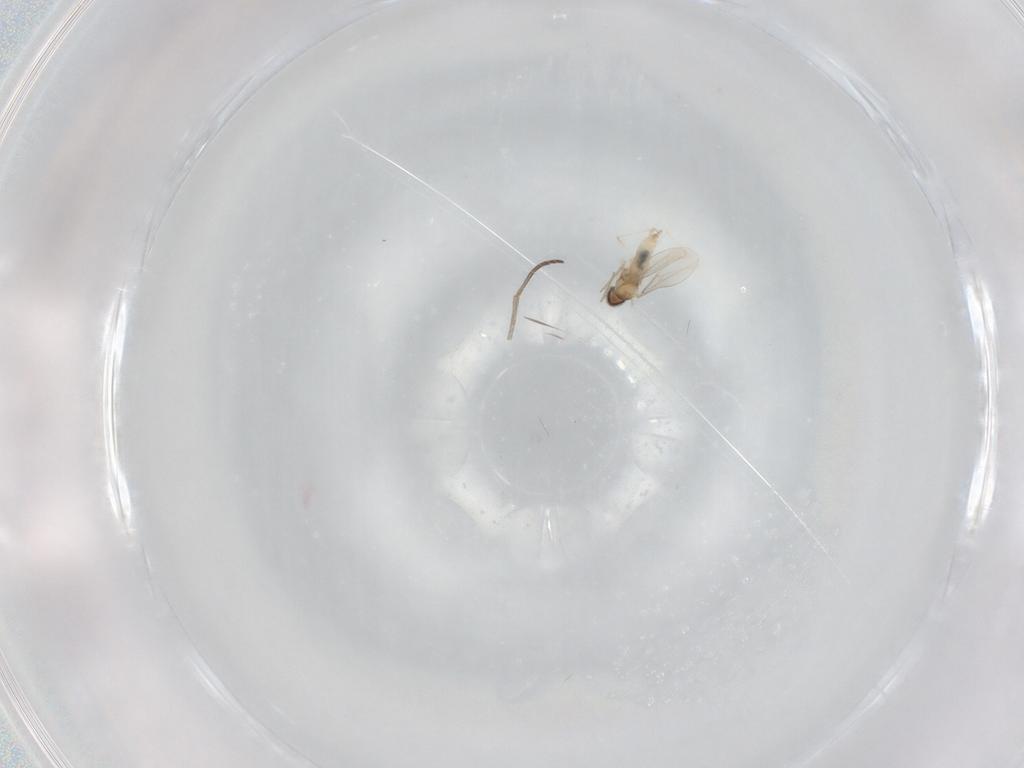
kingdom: Animalia
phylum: Arthropoda
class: Insecta
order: Diptera
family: Cecidomyiidae
